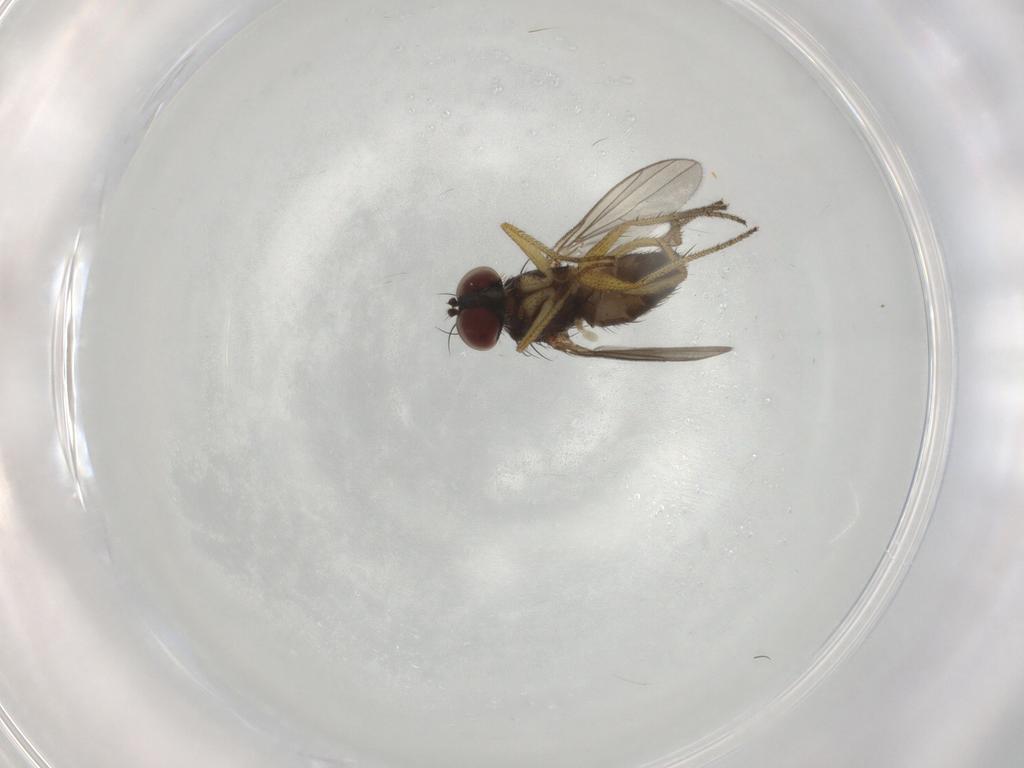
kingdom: Animalia
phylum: Arthropoda
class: Insecta
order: Diptera
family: Dolichopodidae
